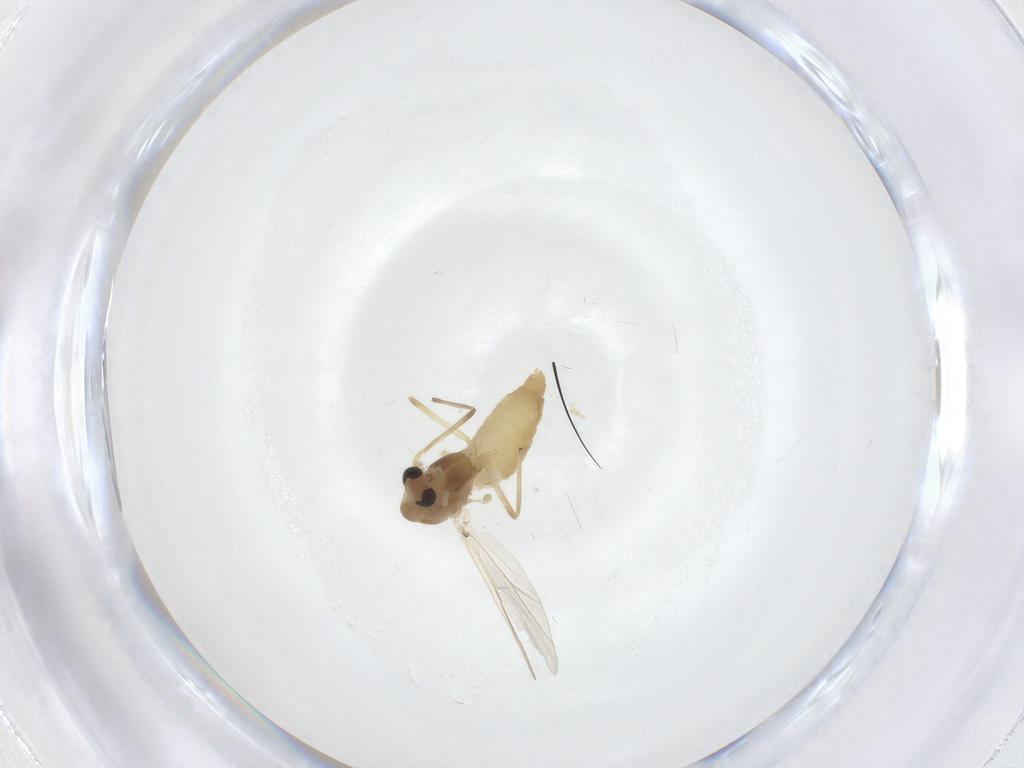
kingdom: Animalia
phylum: Arthropoda
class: Insecta
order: Diptera
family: Chironomidae
